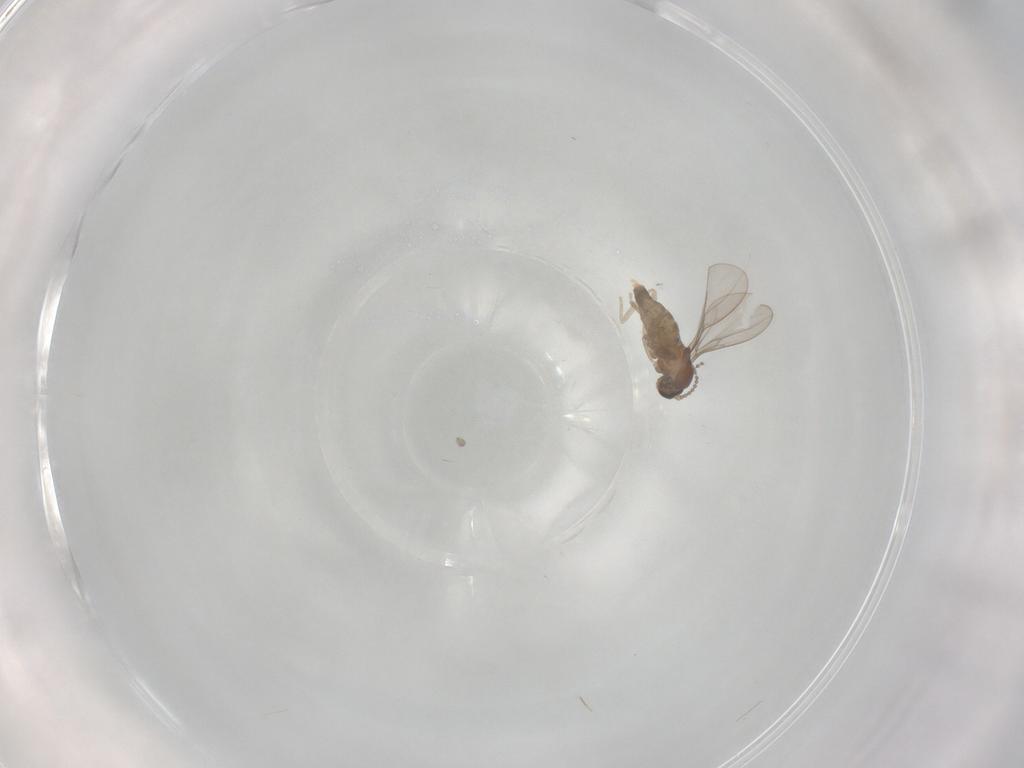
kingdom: Animalia
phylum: Arthropoda
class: Insecta
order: Diptera
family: Cecidomyiidae
